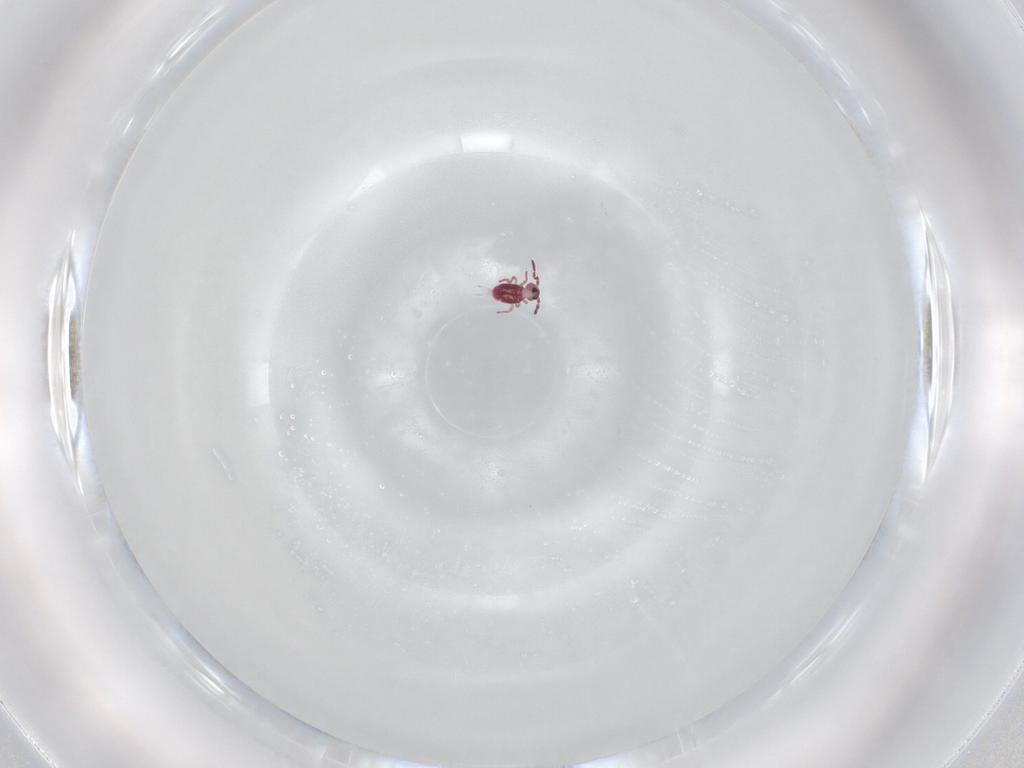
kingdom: Animalia
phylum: Arthropoda
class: Collembola
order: Symphypleona
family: Sminthurididae
